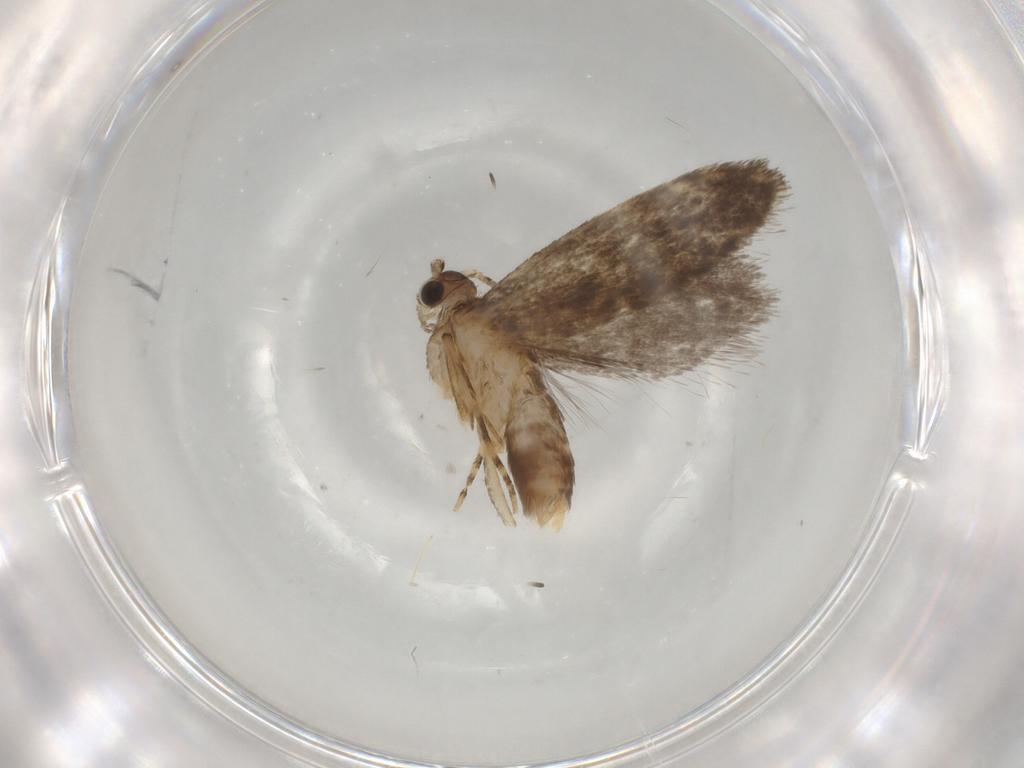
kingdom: Animalia
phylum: Arthropoda
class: Insecta
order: Lepidoptera
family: Dryadaulidae
